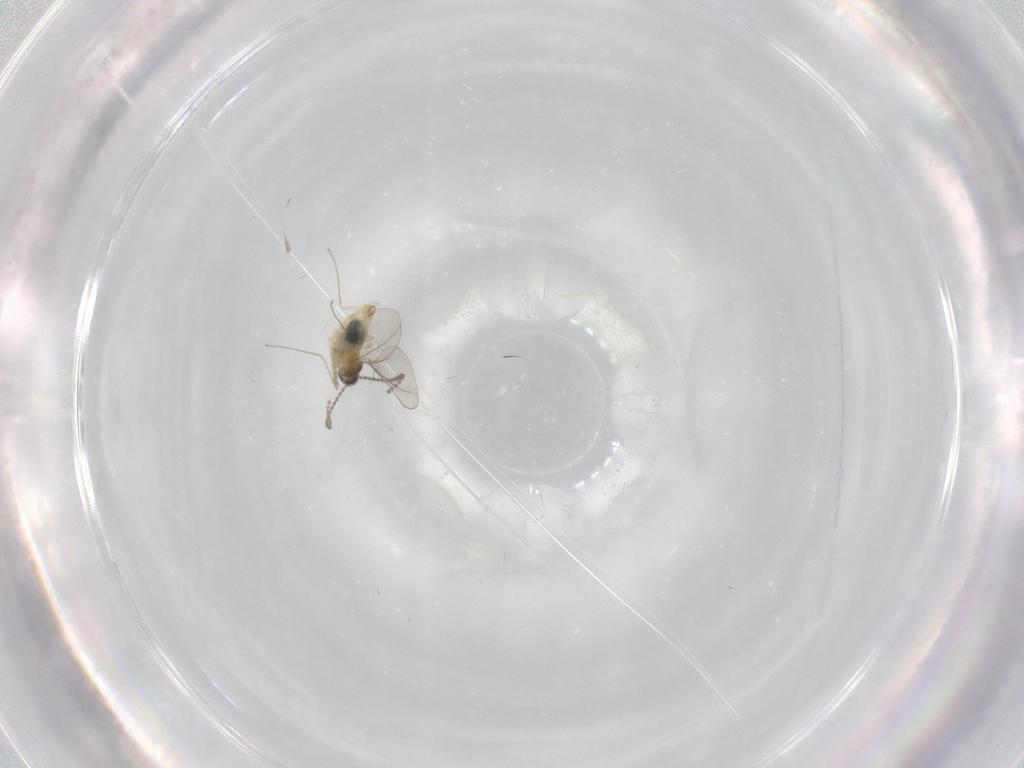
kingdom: Animalia
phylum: Arthropoda
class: Insecta
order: Diptera
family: Cecidomyiidae
